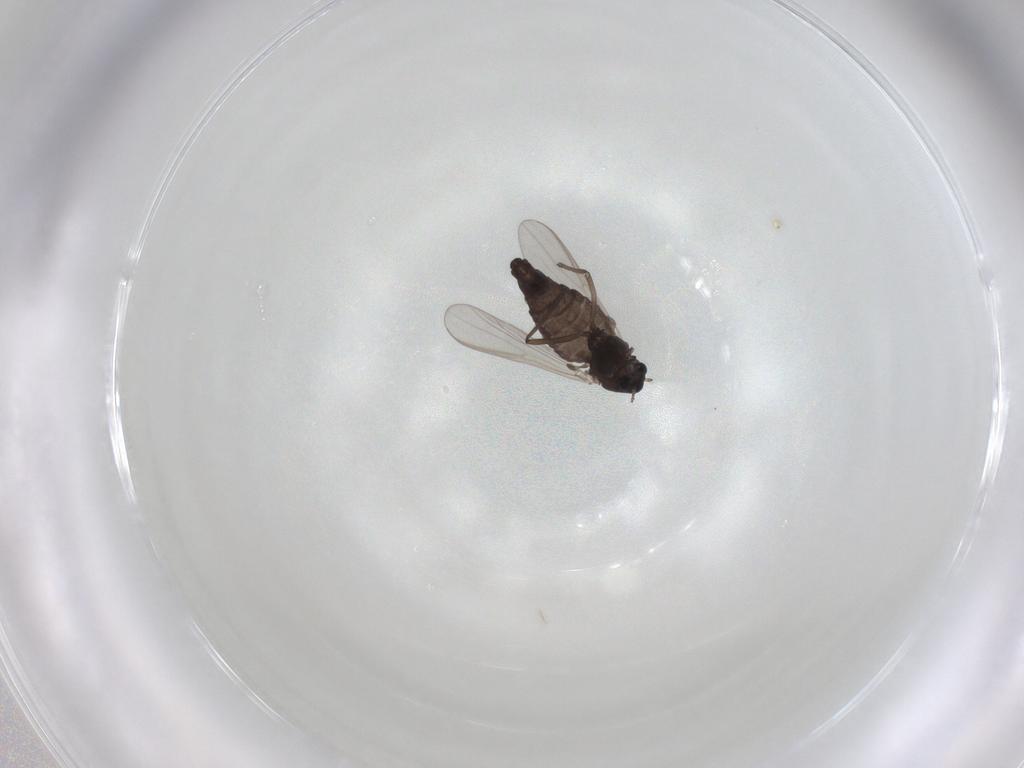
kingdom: Animalia
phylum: Arthropoda
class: Insecta
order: Diptera
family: Chironomidae
